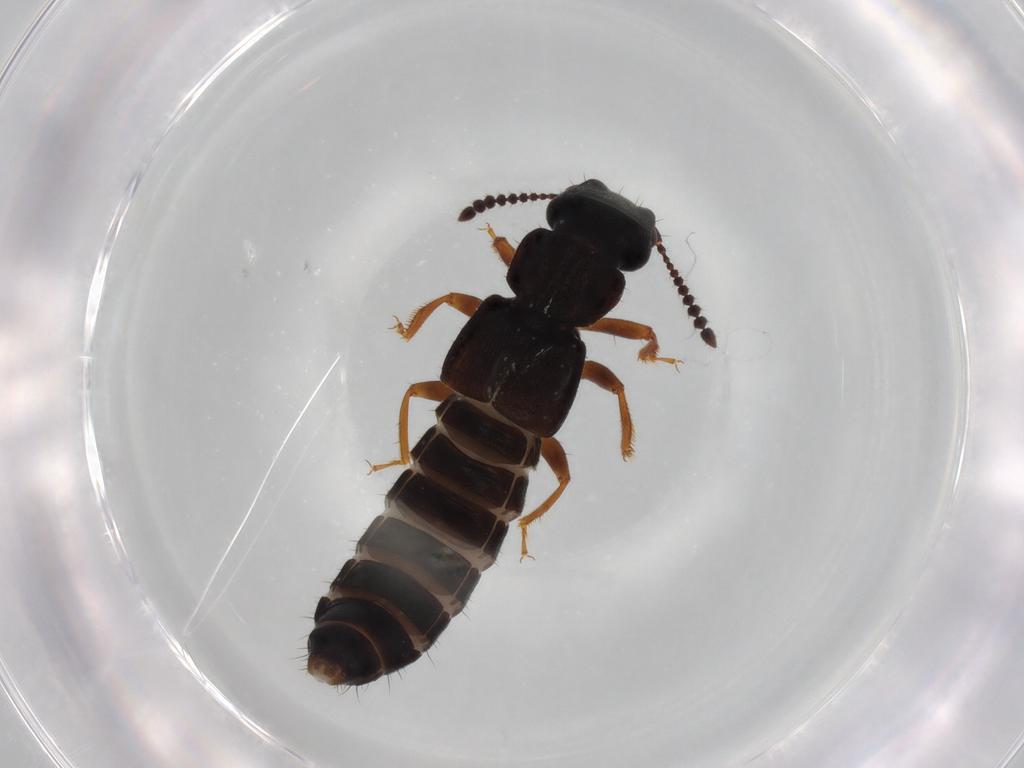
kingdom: Animalia
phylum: Arthropoda
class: Insecta
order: Coleoptera
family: Staphylinidae
